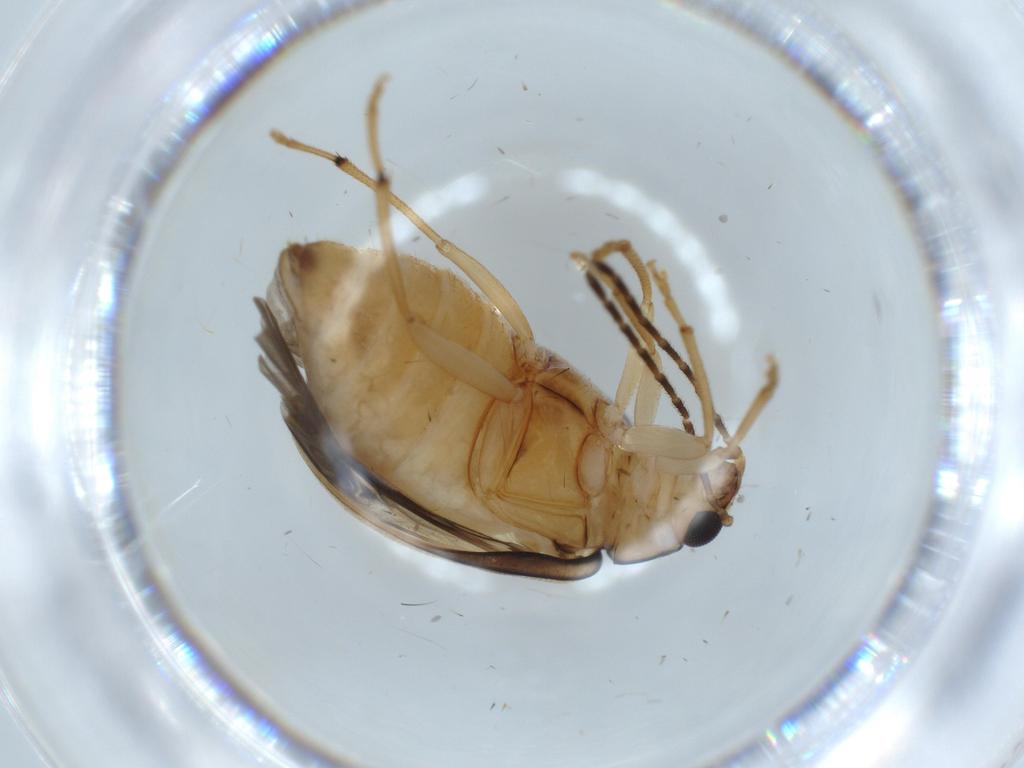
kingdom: Animalia
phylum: Arthropoda
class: Insecta
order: Coleoptera
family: Chrysomelidae
